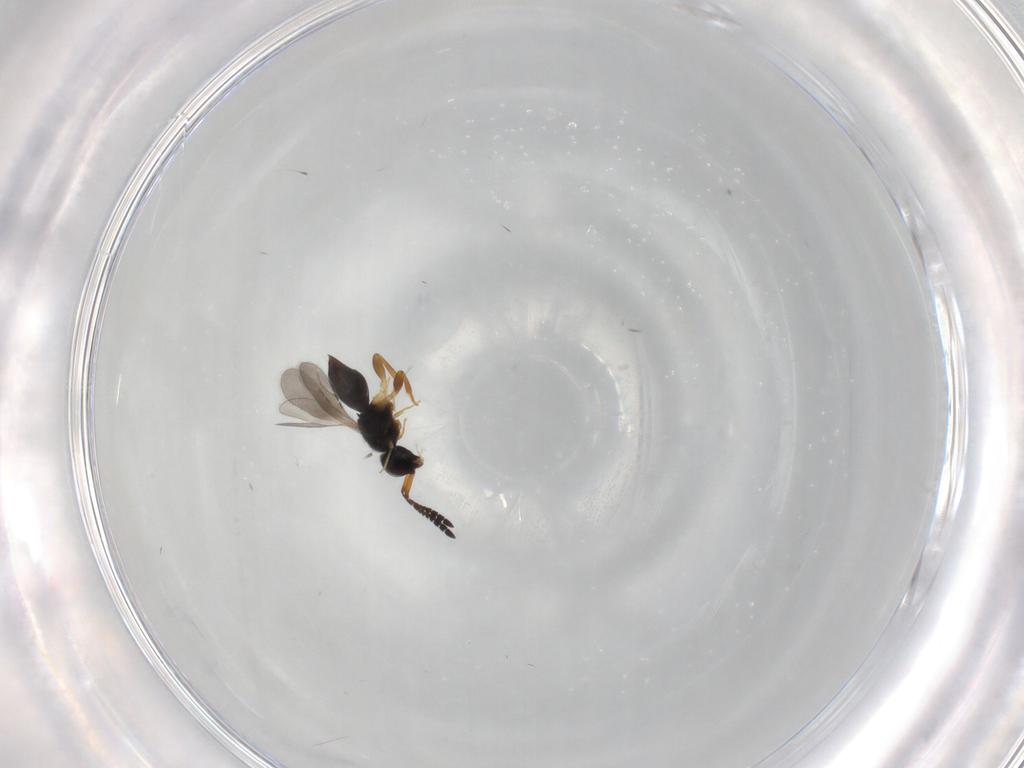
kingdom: Animalia
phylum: Arthropoda
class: Insecta
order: Hymenoptera
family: Ceraphronidae
